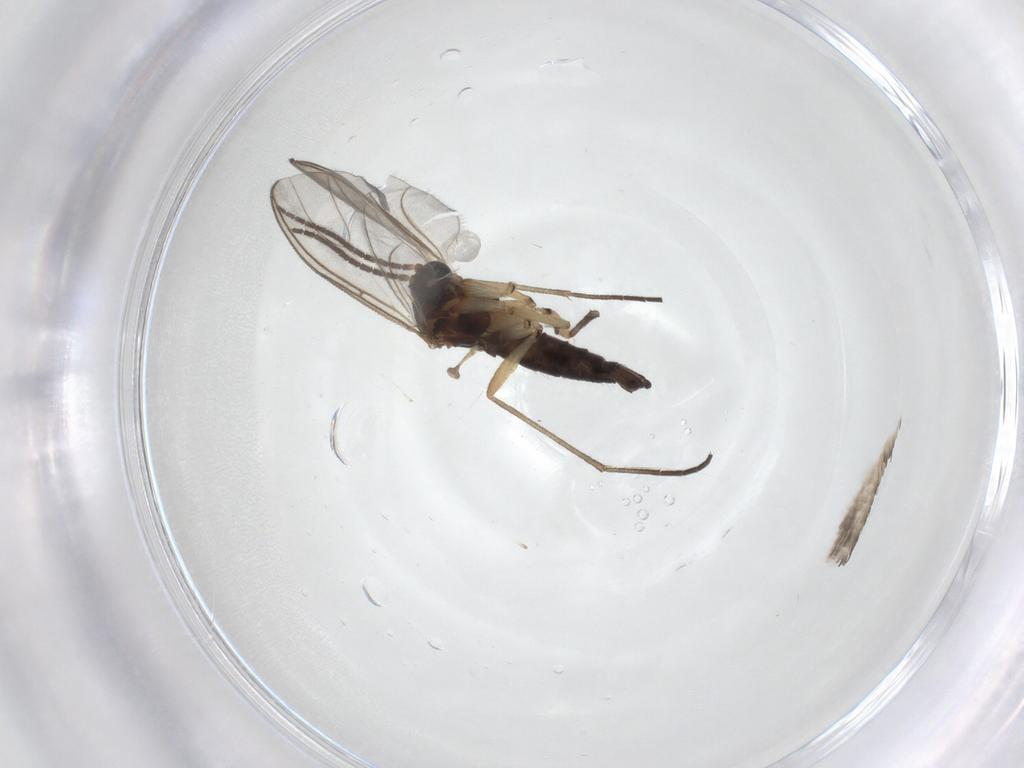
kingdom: Animalia
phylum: Arthropoda
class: Insecta
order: Diptera
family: Sciaridae
